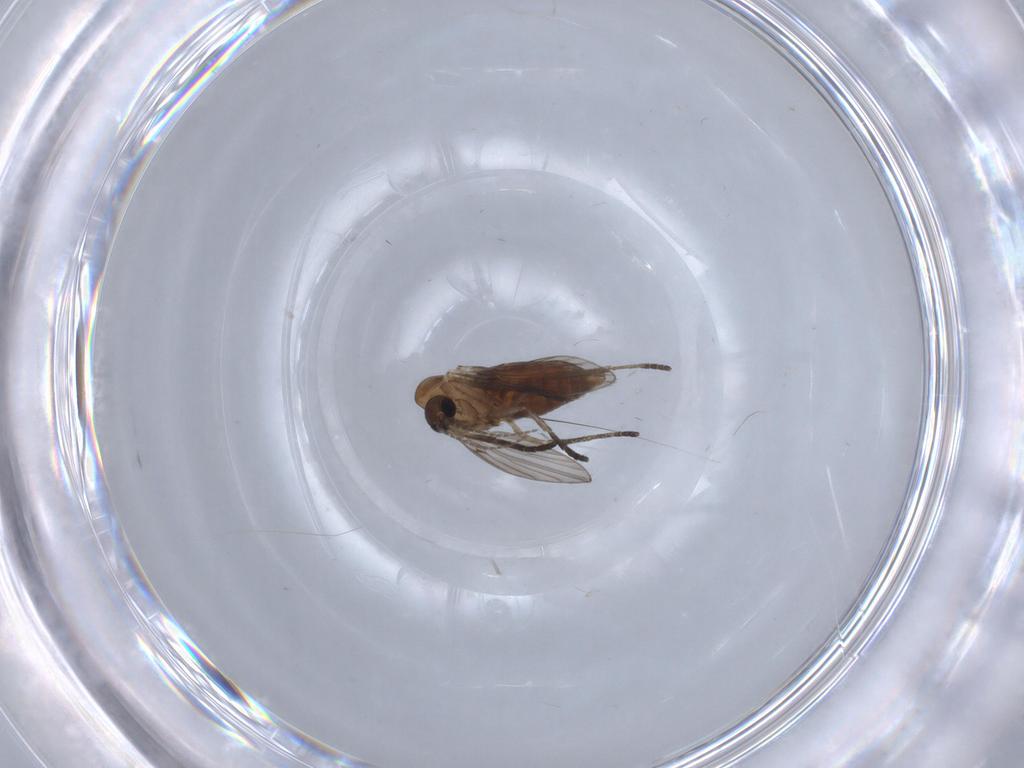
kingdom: Animalia
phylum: Arthropoda
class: Insecta
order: Diptera
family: Psychodidae
